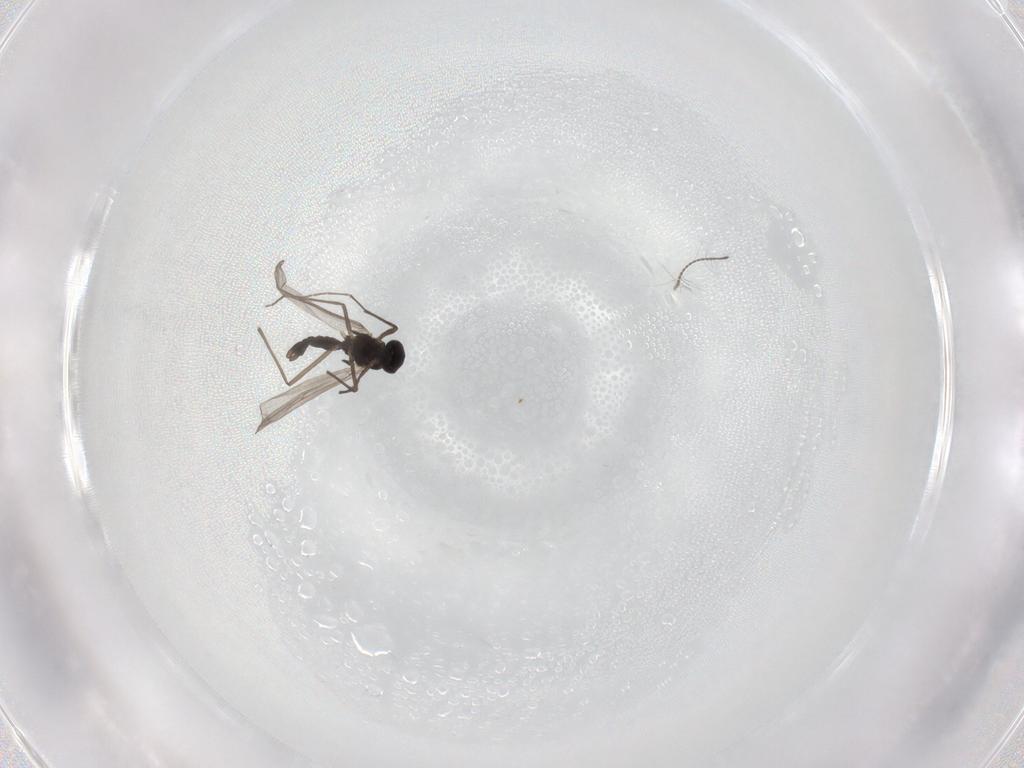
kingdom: Animalia
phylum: Arthropoda
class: Insecta
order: Diptera
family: Chironomidae
